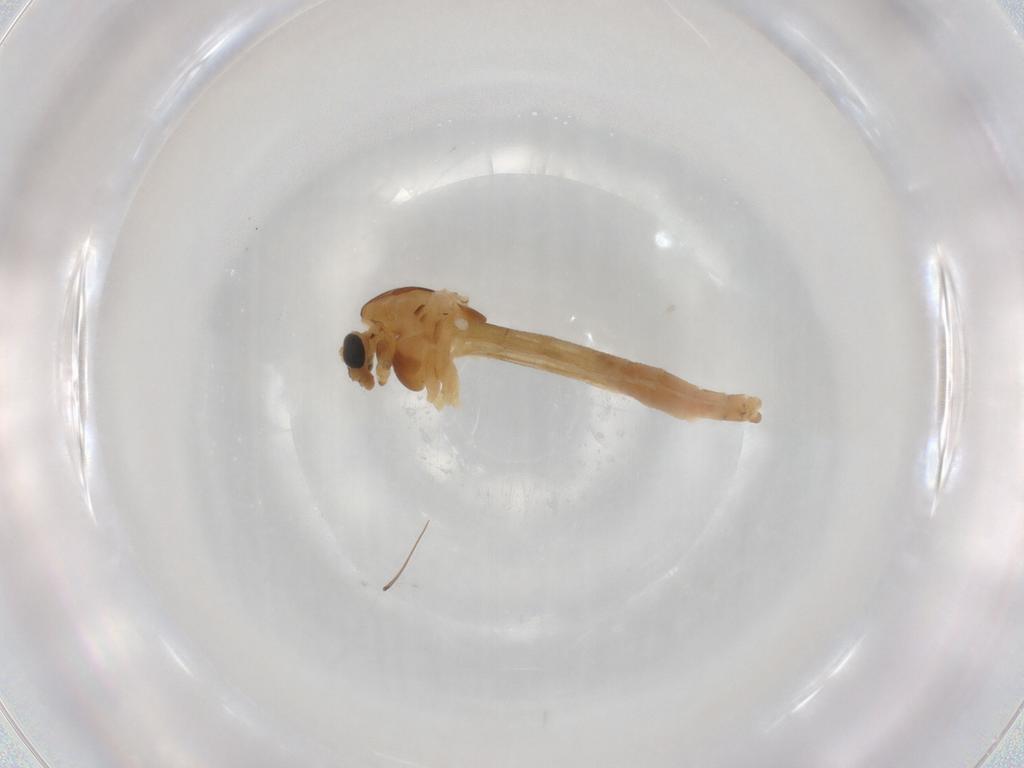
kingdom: Animalia
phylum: Arthropoda
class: Insecta
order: Diptera
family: Chironomidae
